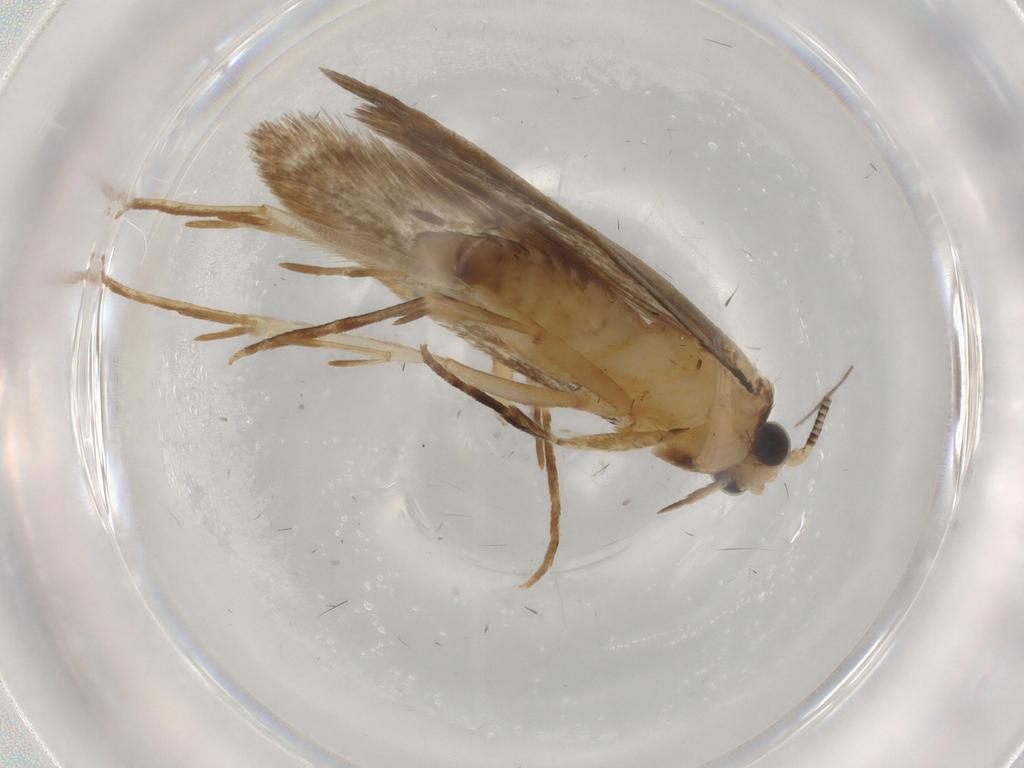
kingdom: Animalia
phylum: Arthropoda
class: Insecta
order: Lepidoptera
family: Tineidae
